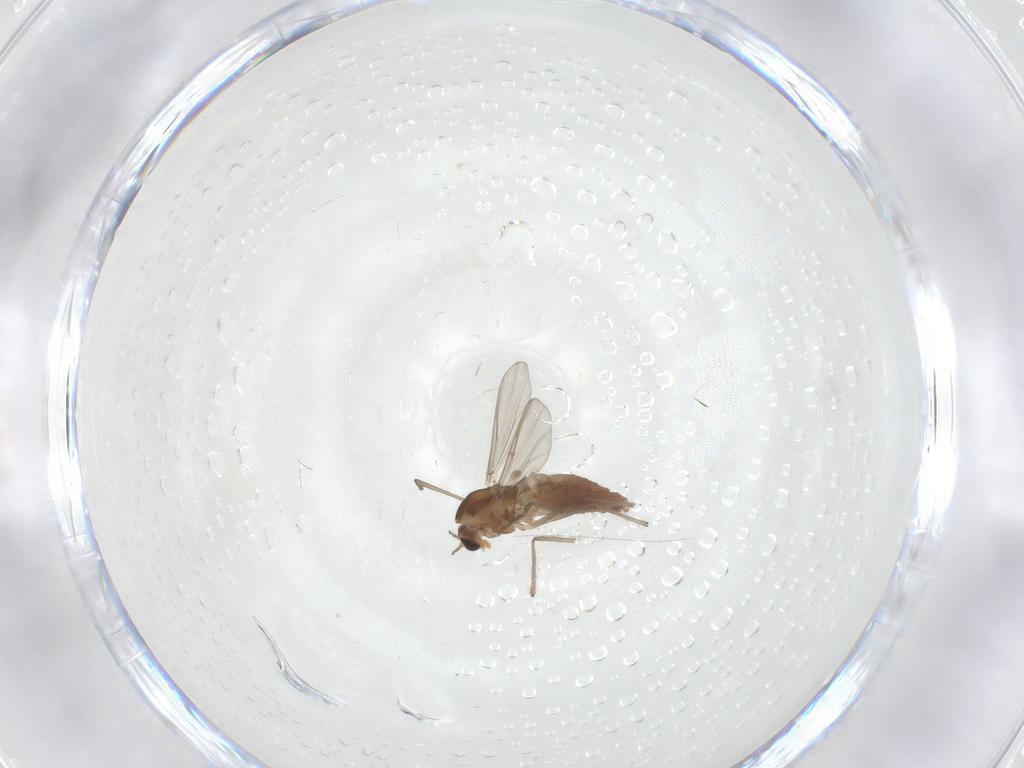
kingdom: Animalia
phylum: Arthropoda
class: Insecta
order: Diptera
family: Chironomidae
